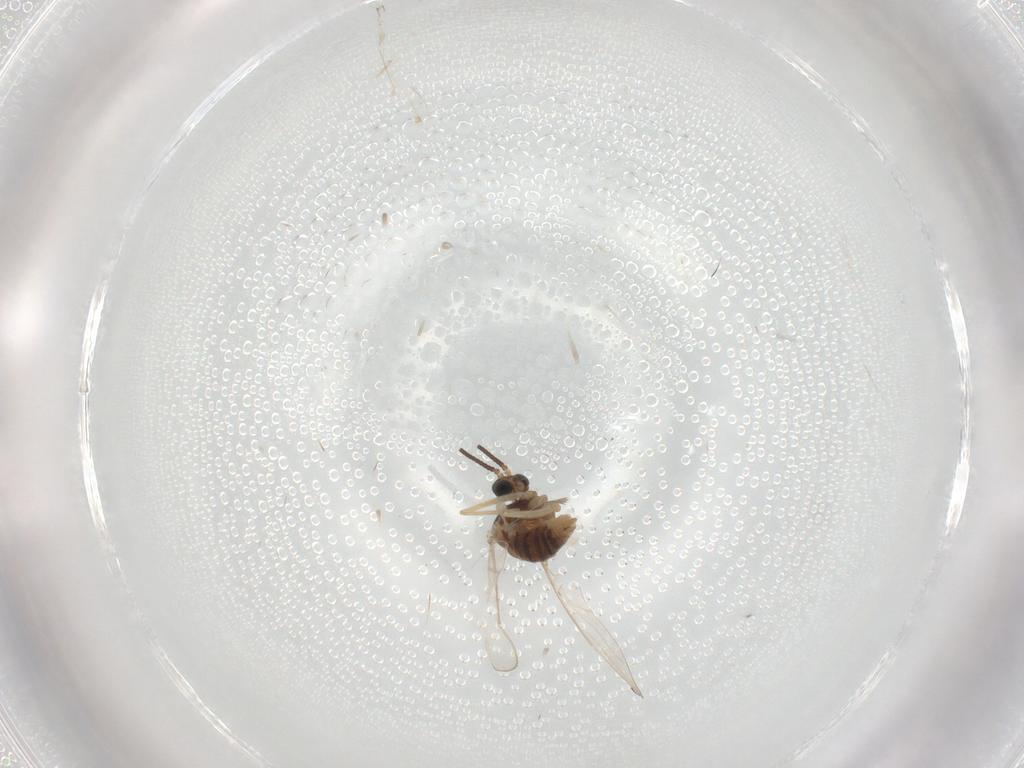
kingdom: Animalia
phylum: Arthropoda
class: Insecta
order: Diptera
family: Cecidomyiidae
